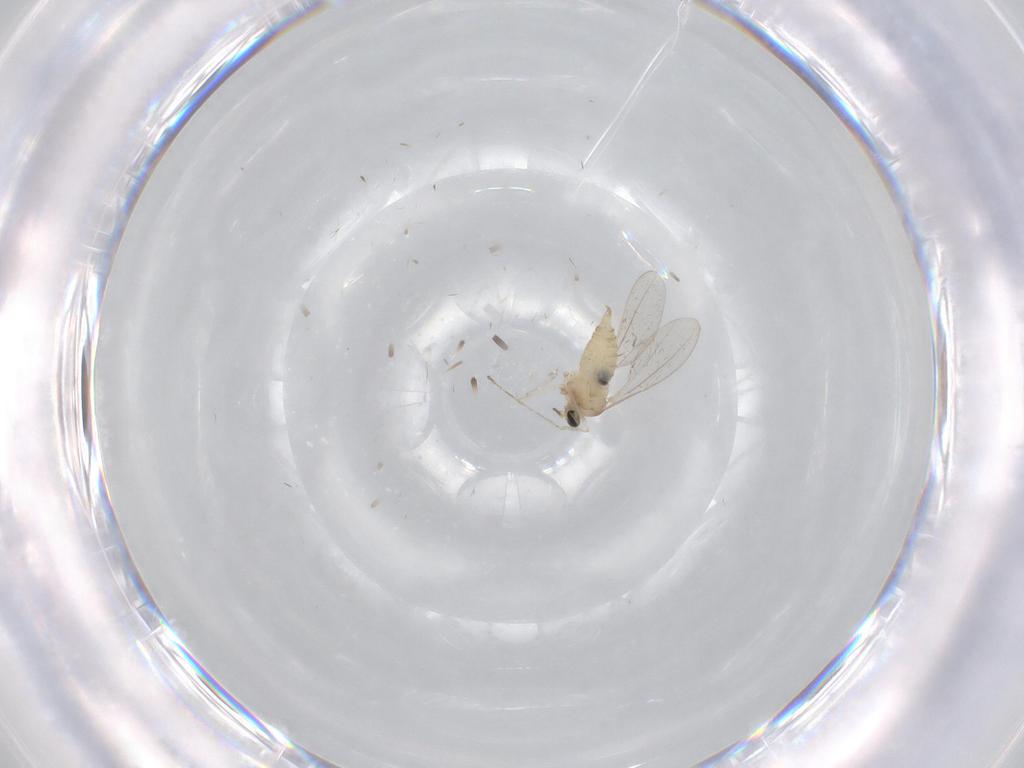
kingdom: Animalia
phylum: Arthropoda
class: Insecta
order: Diptera
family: Cecidomyiidae
